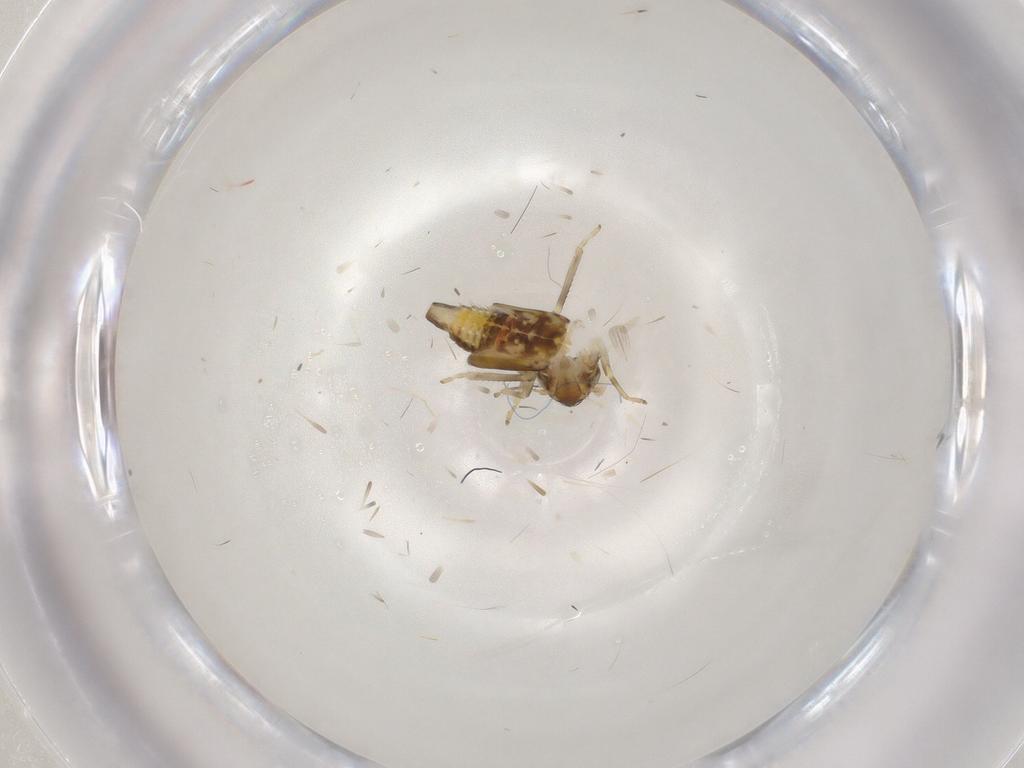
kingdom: Animalia
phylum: Arthropoda
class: Insecta
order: Hemiptera
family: Cicadellidae
